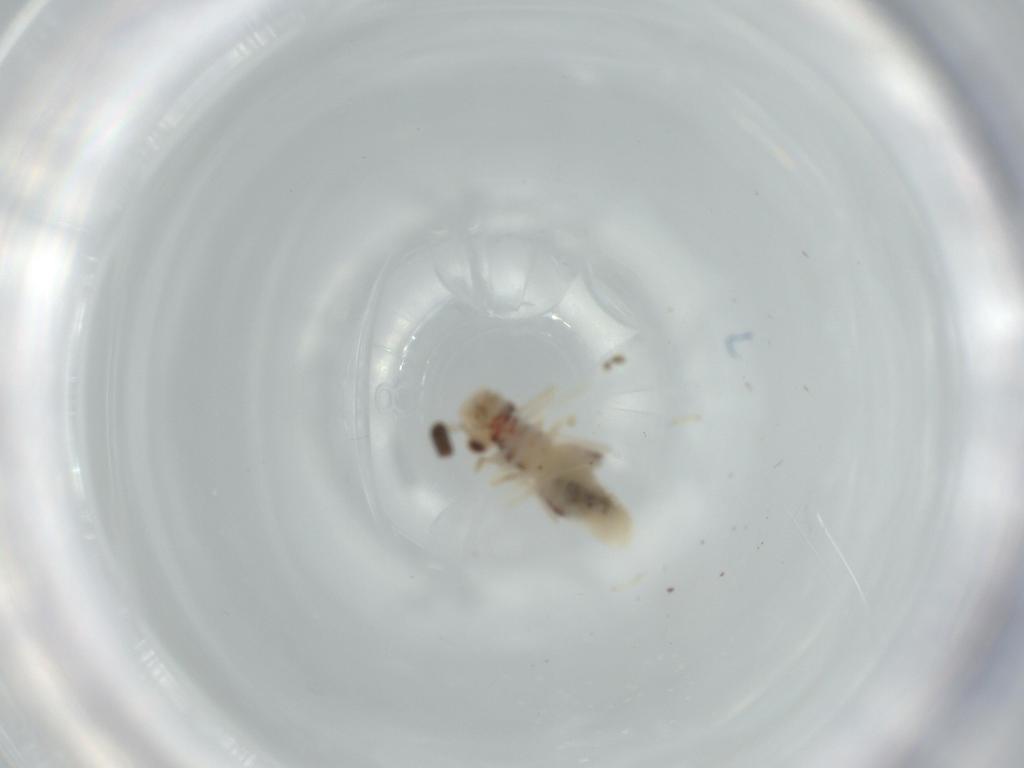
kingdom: Animalia
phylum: Arthropoda
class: Insecta
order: Psocodea
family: Caeciliusidae
